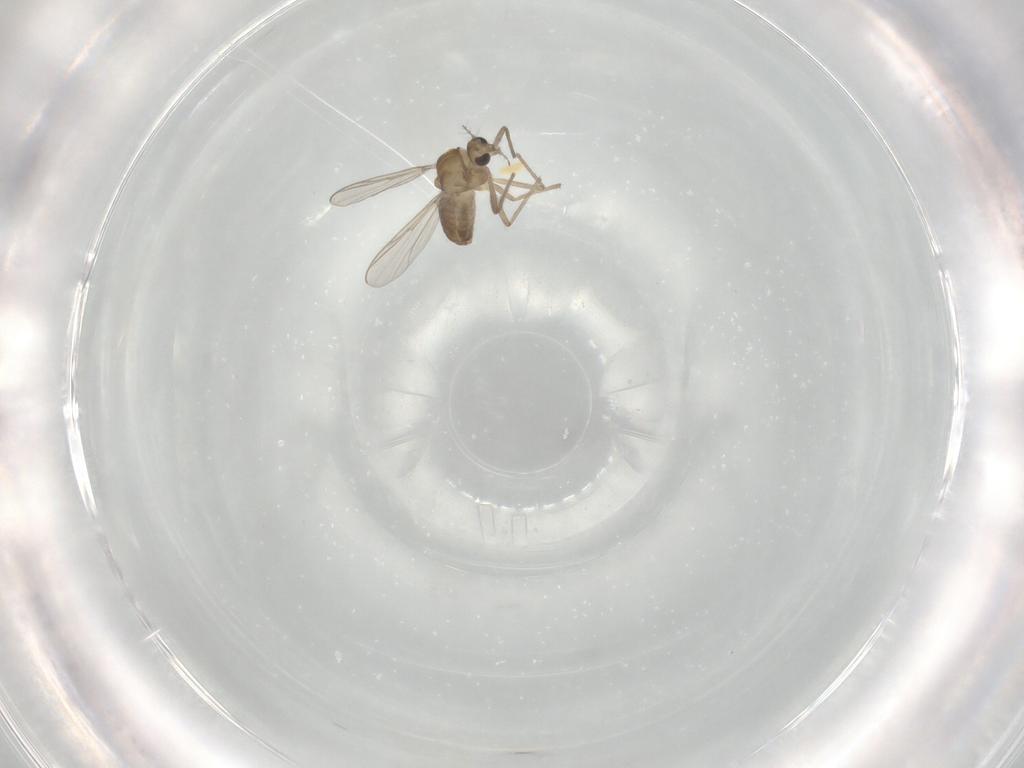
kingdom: Animalia
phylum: Arthropoda
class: Insecta
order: Diptera
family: Chironomidae
